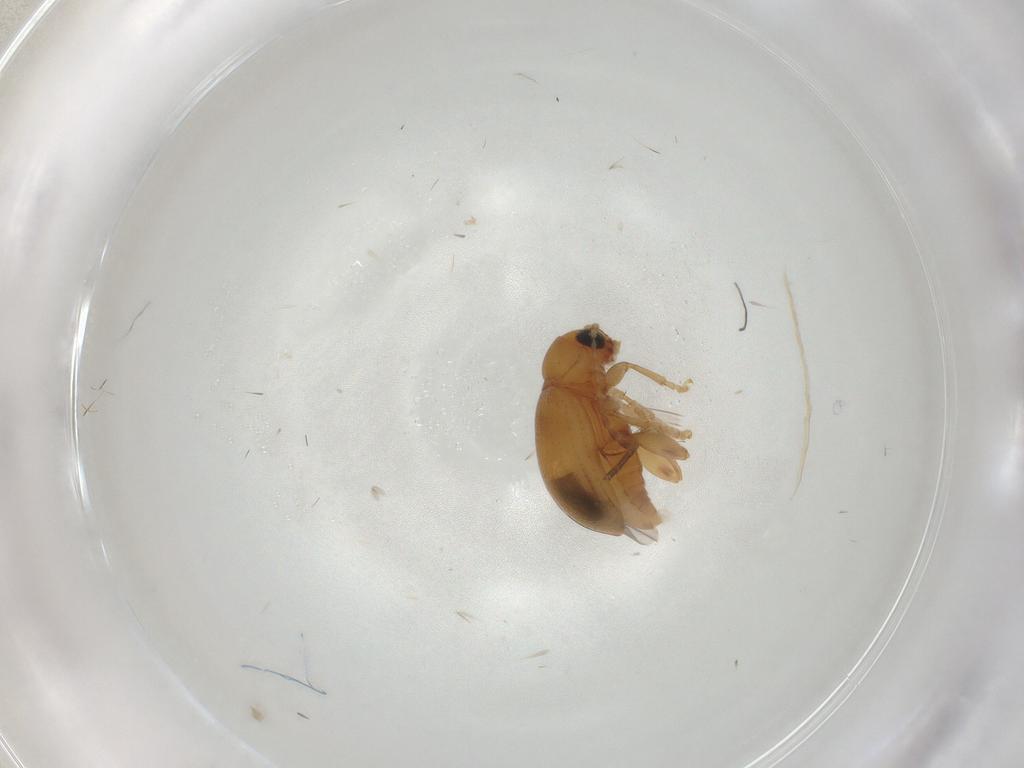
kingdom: Animalia
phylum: Arthropoda
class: Insecta
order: Coleoptera
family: Chrysomelidae
